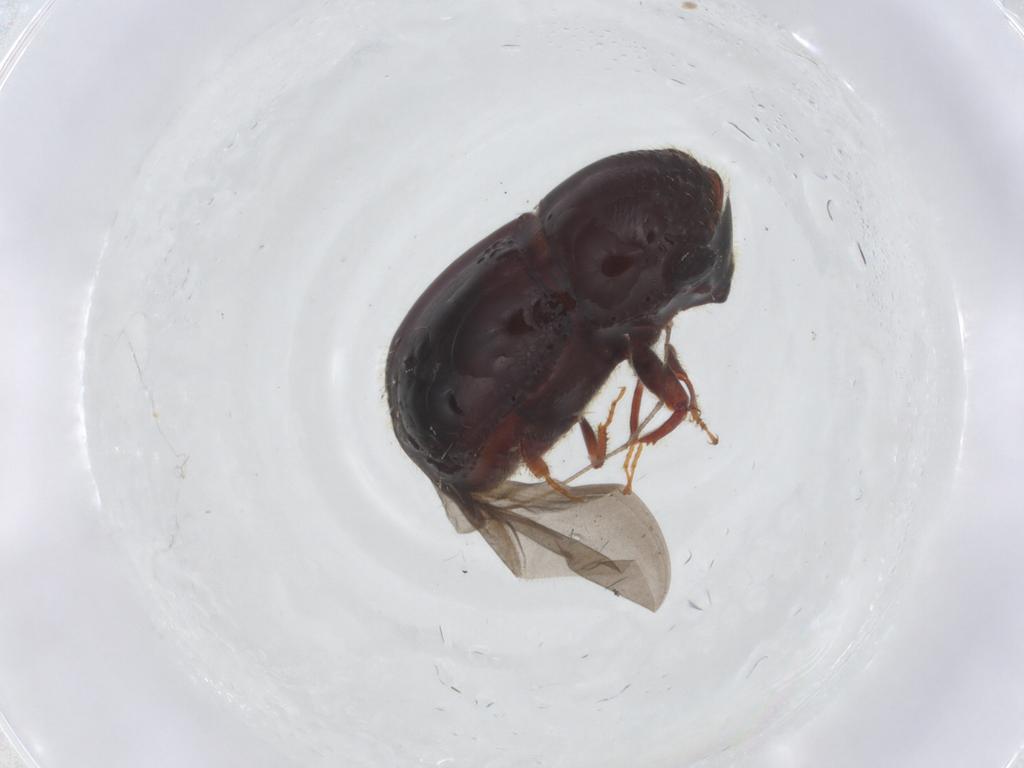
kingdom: Animalia
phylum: Arthropoda
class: Insecta
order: Coleoptera
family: Curculionidae
